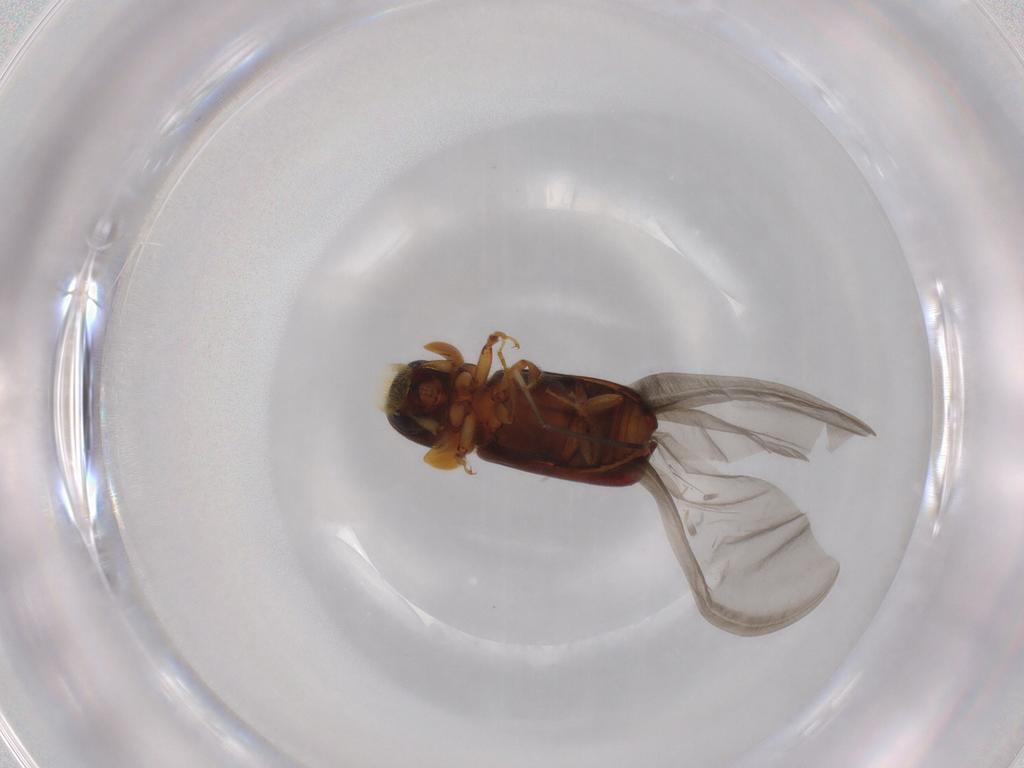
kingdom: Animalia
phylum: Arthropoda
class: Insecta
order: Coleoptera
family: Curculionidae
